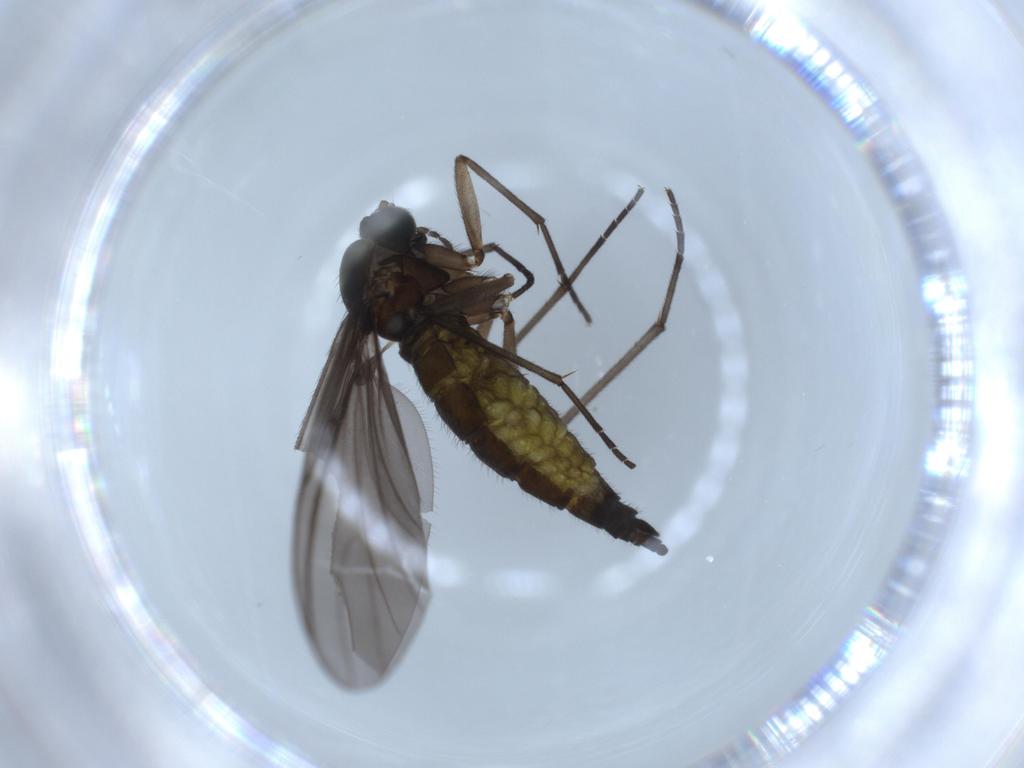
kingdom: Animalia
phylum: Arthropoda
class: Insecta
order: Diptera
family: Sciaridae
